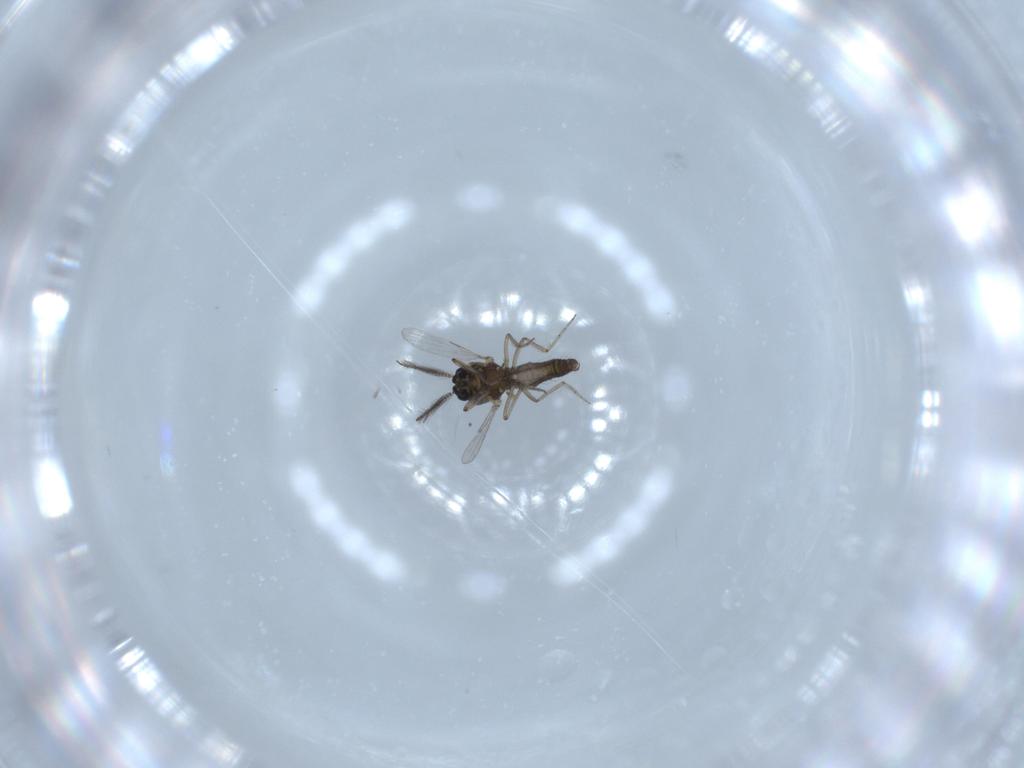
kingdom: Animalia
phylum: Arthropoda
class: Insecta
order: Diptera
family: Ceratopogonidae
